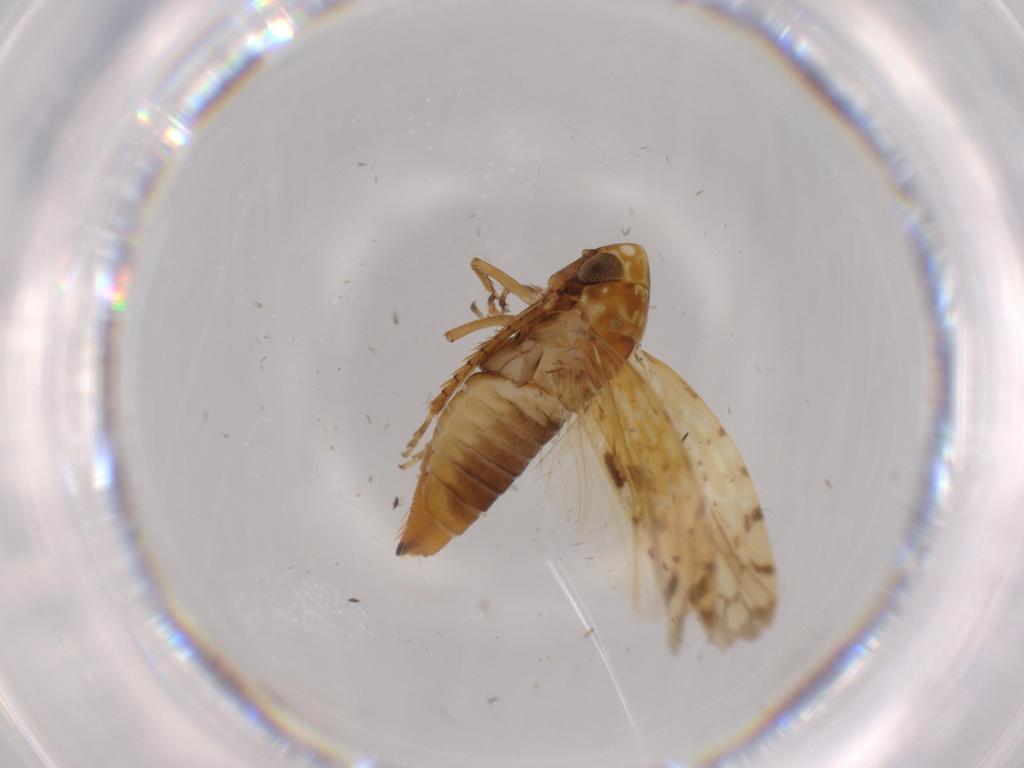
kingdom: Animalia
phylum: Arthropoda
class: Insecta
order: Hemiptera
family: Cicadellidae
